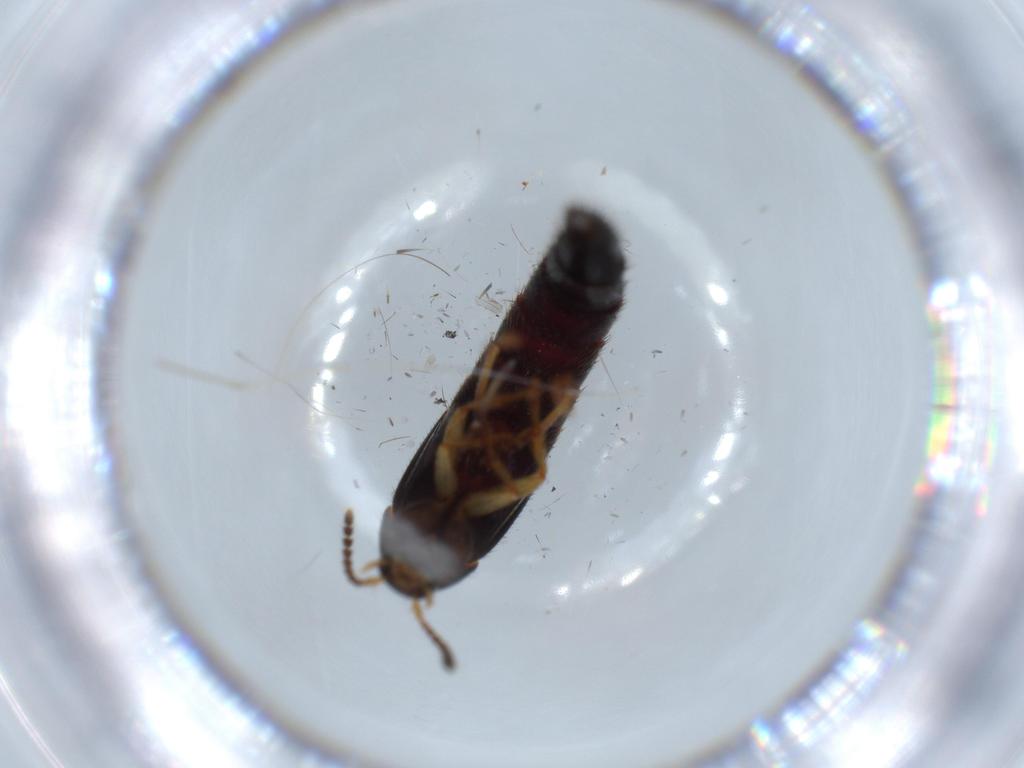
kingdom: Animalia
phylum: Arthropoda
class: Insecta
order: Coleoptera
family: Staphylinidae
